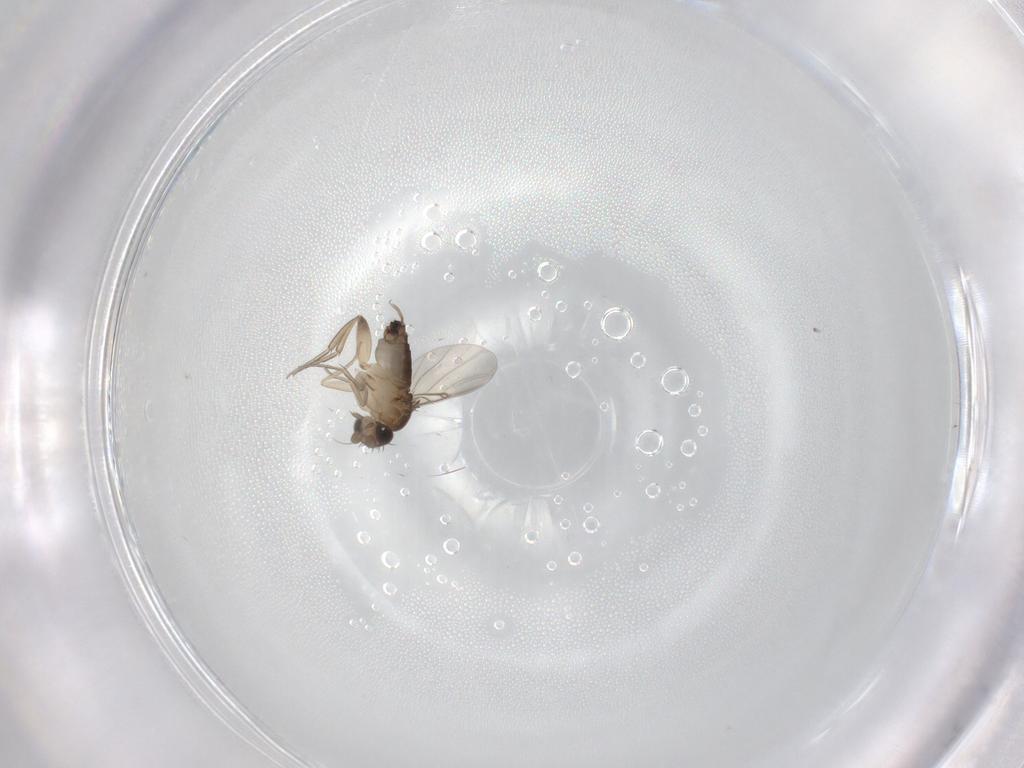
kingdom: Animalia
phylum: Arthropoda
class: Insecta
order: Diptera
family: Phoridae
